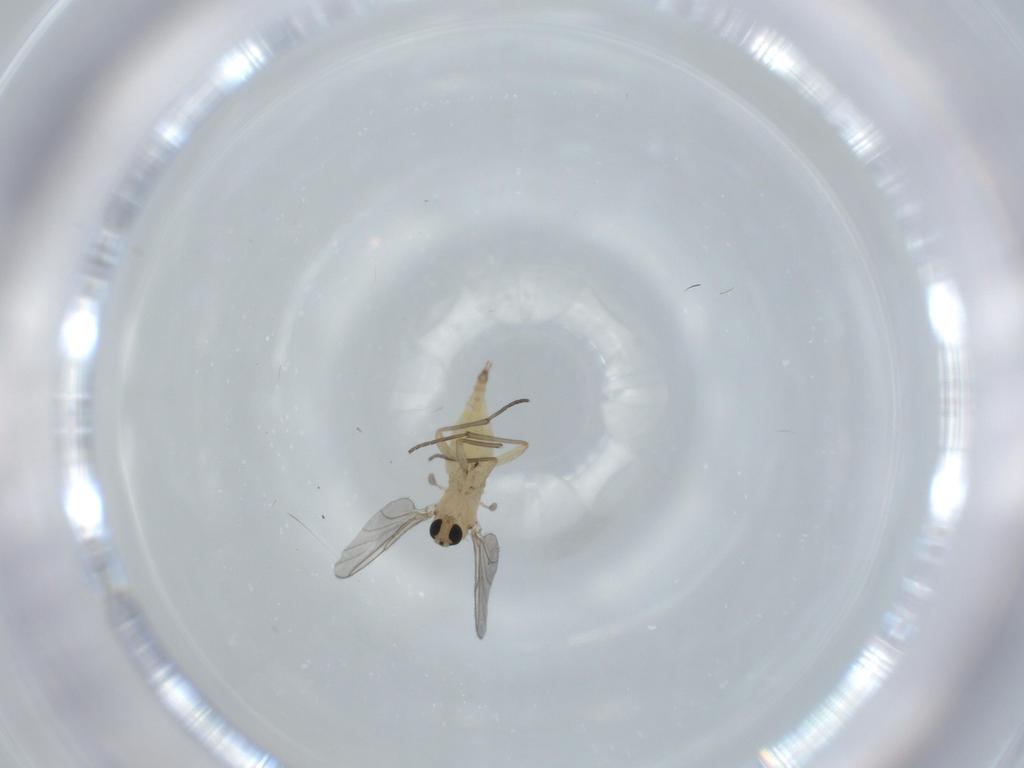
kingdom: Animalia
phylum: Arthropoda
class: Insecta
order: Diptera
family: Sciaridae
